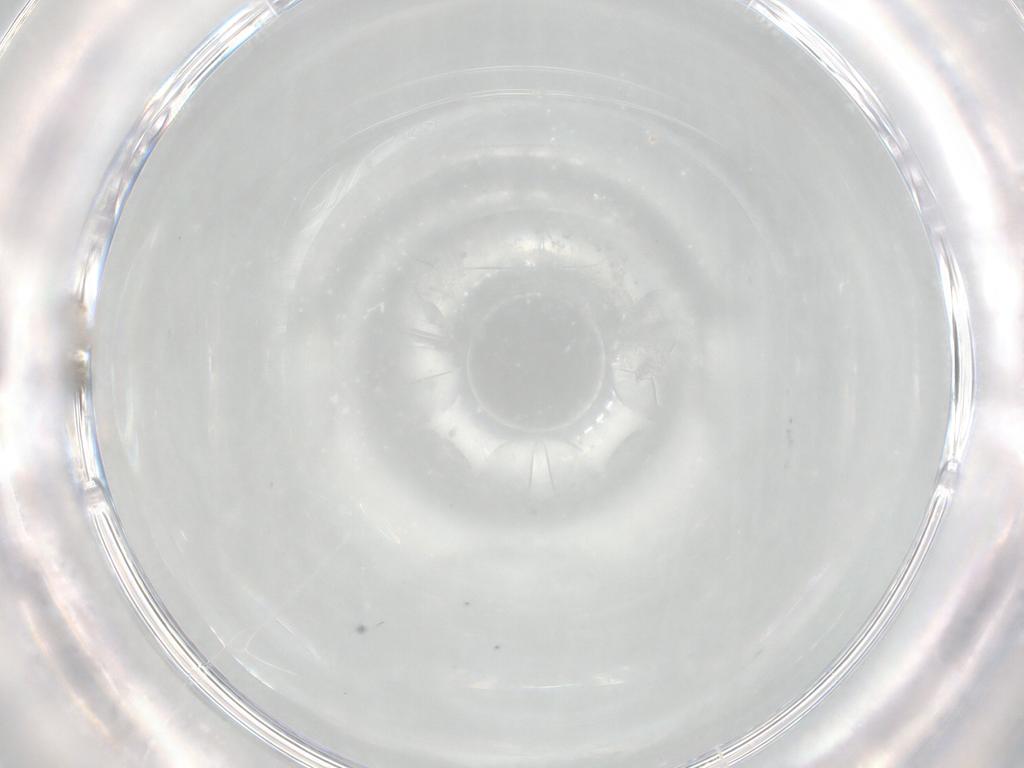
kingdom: Animalia
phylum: Arthropoda
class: Insecta
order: Diptera
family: Cecidomyiidae
